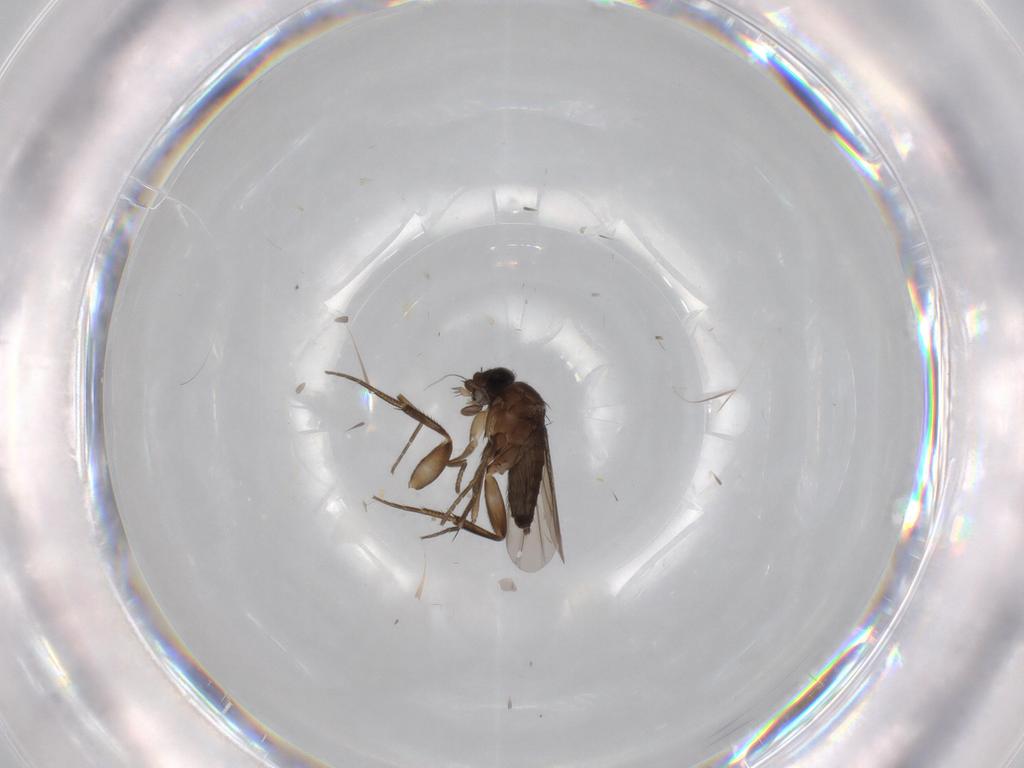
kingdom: Animalia
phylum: Arthropoda
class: Insecta
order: Diptera
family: Phoridae
